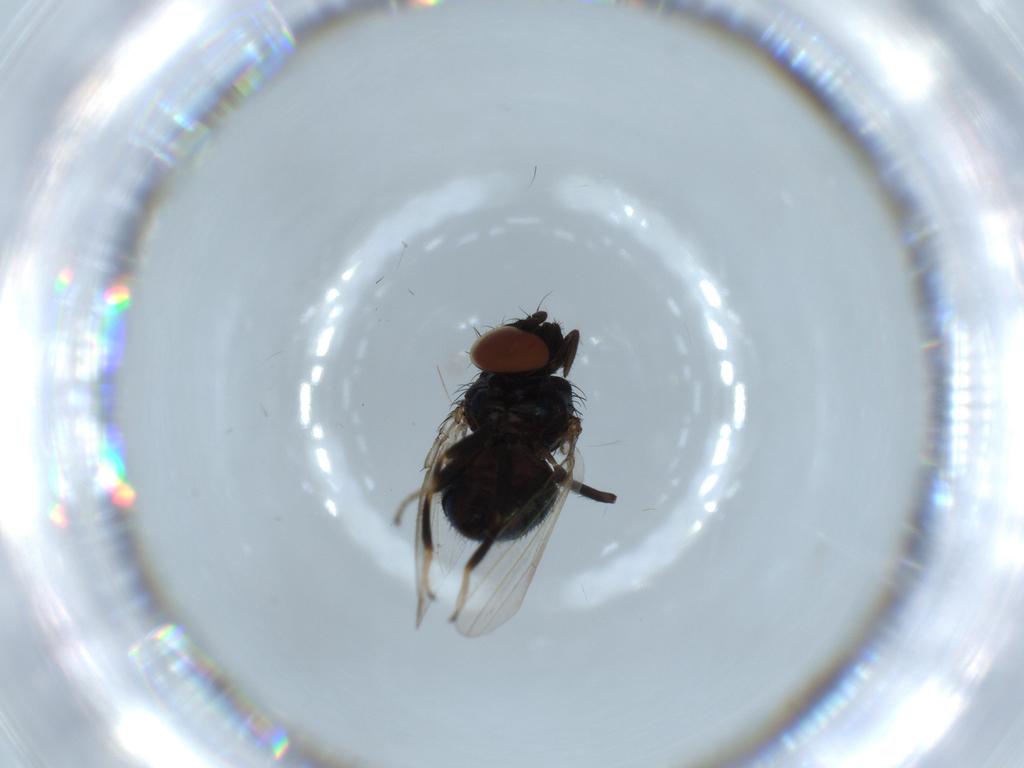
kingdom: Animalia
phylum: Arthropoda
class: Insecta
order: Diptera
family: Milichiidae
